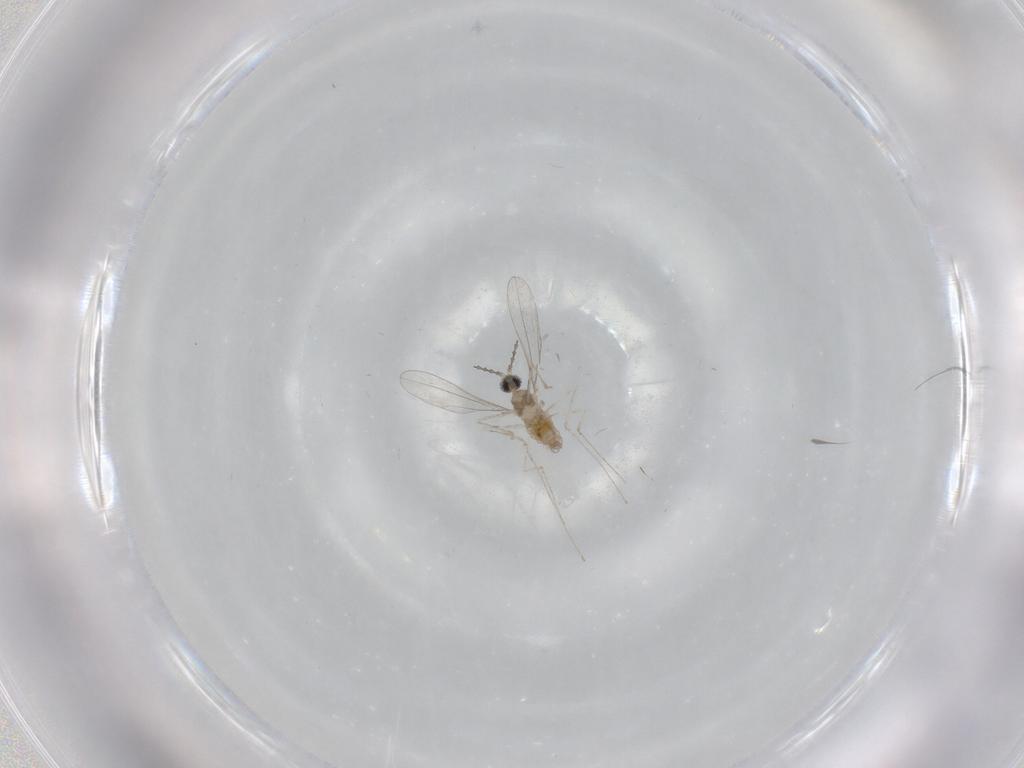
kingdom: Animalia
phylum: Arthropoda
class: Insecta
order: Diptera
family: Cecidomyiidae
